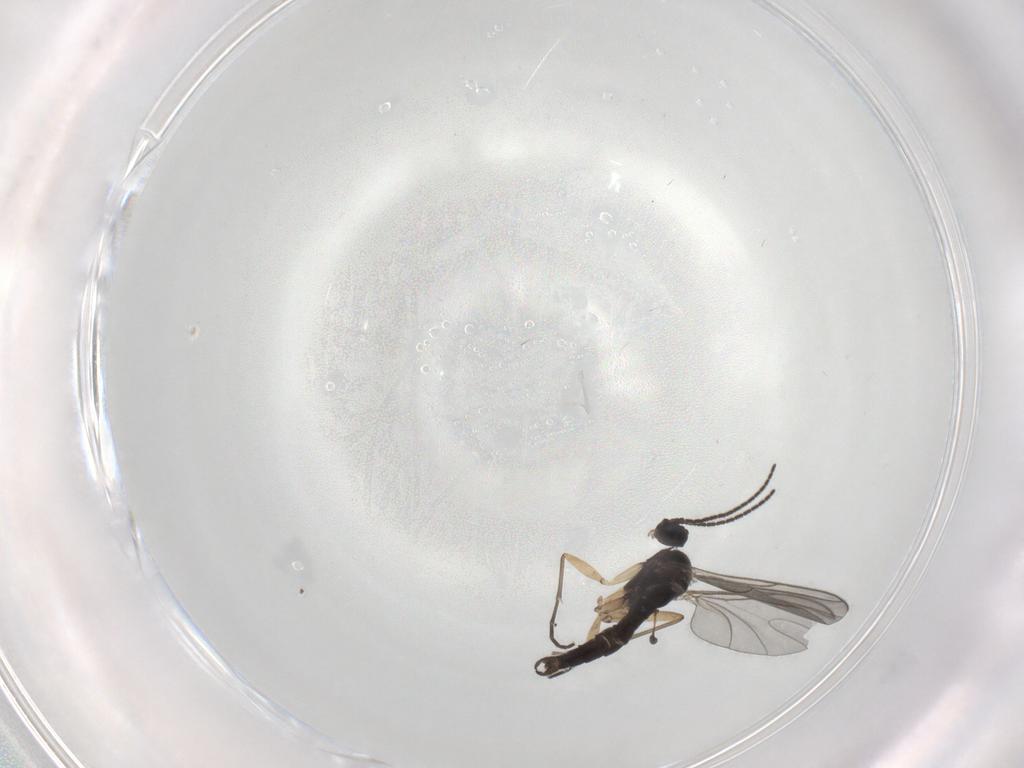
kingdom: Animalia
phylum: Arthropoda
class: Insecta
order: Diptera
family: Sciaridae
